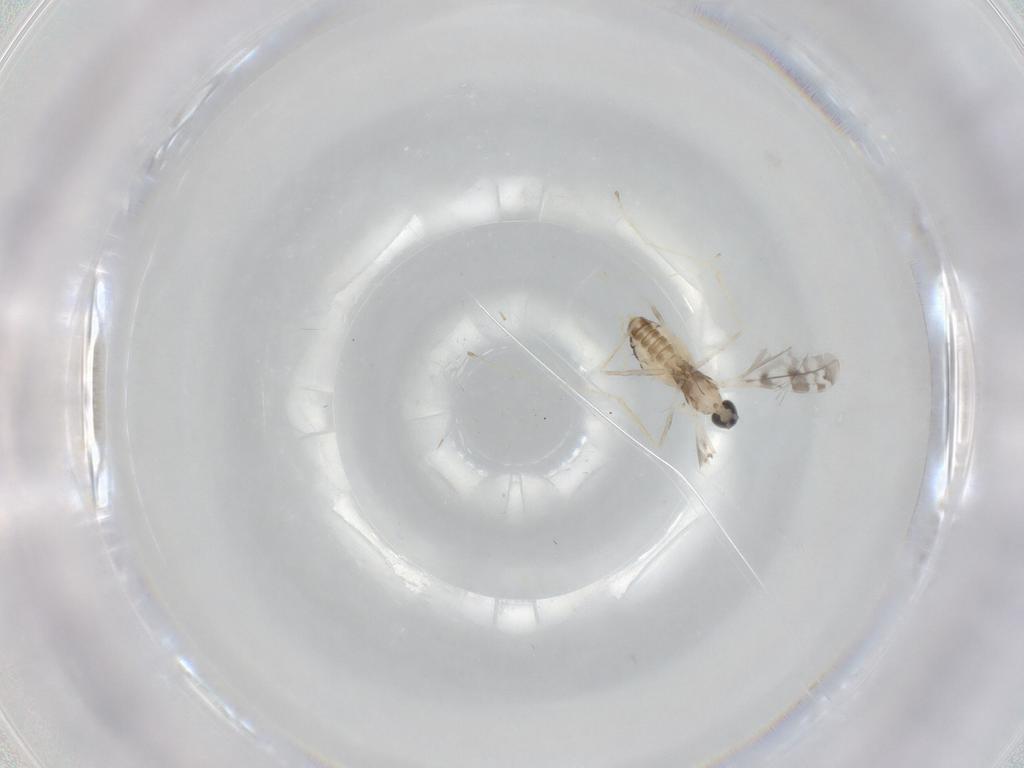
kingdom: Animalia
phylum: Arthropoda
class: Insecta
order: Diptera
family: Cecidomyiidae
